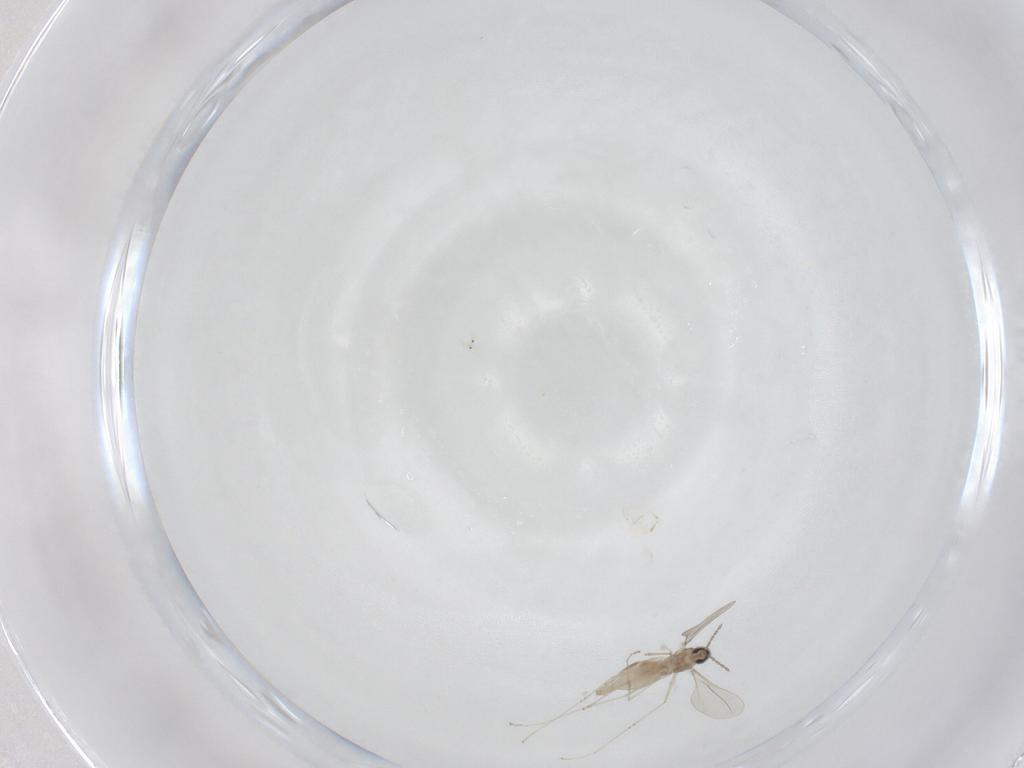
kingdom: Animalia
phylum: Arthropoda
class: Insecta
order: Diptera
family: Cecidomyiidae
